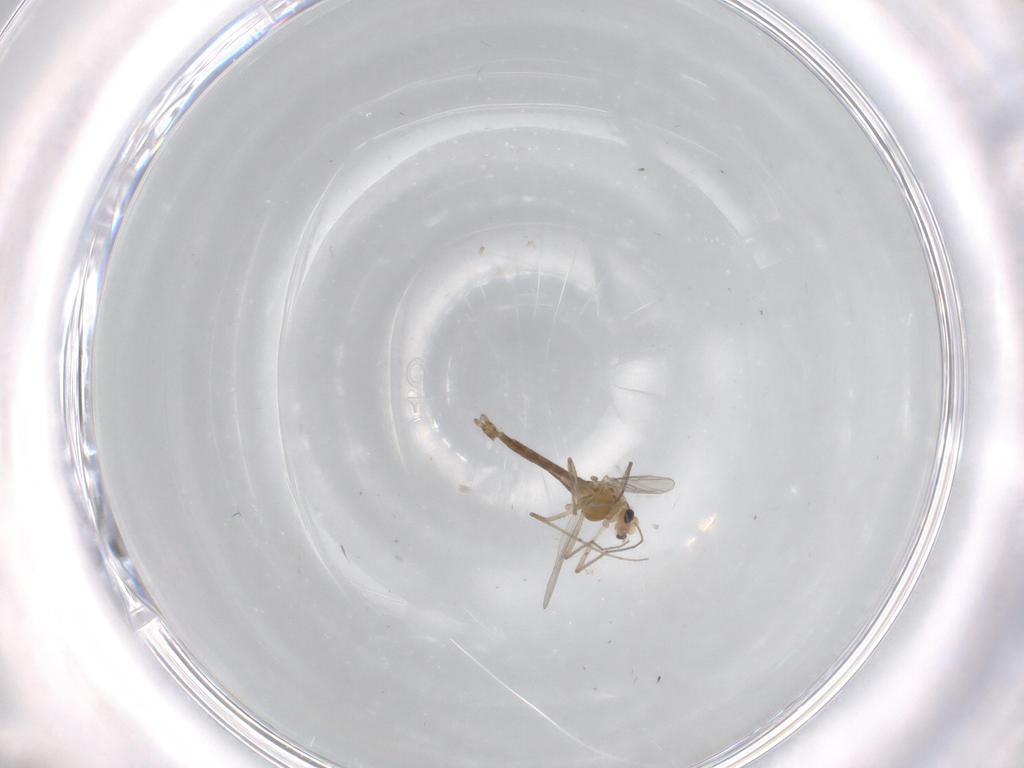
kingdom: Animalia
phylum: Arthropoda
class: Insecta
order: Diptera
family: Chironomidae
